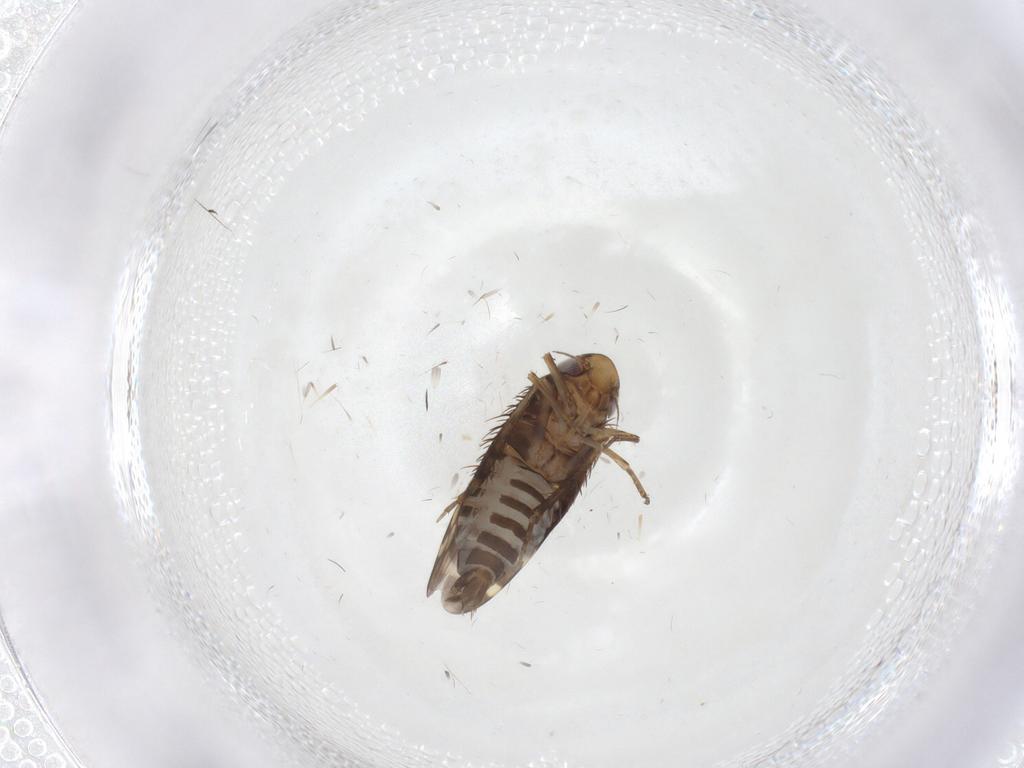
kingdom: Animalia
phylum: Arthropoda
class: Insecta
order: Hemiptera
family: Cicadellidae
